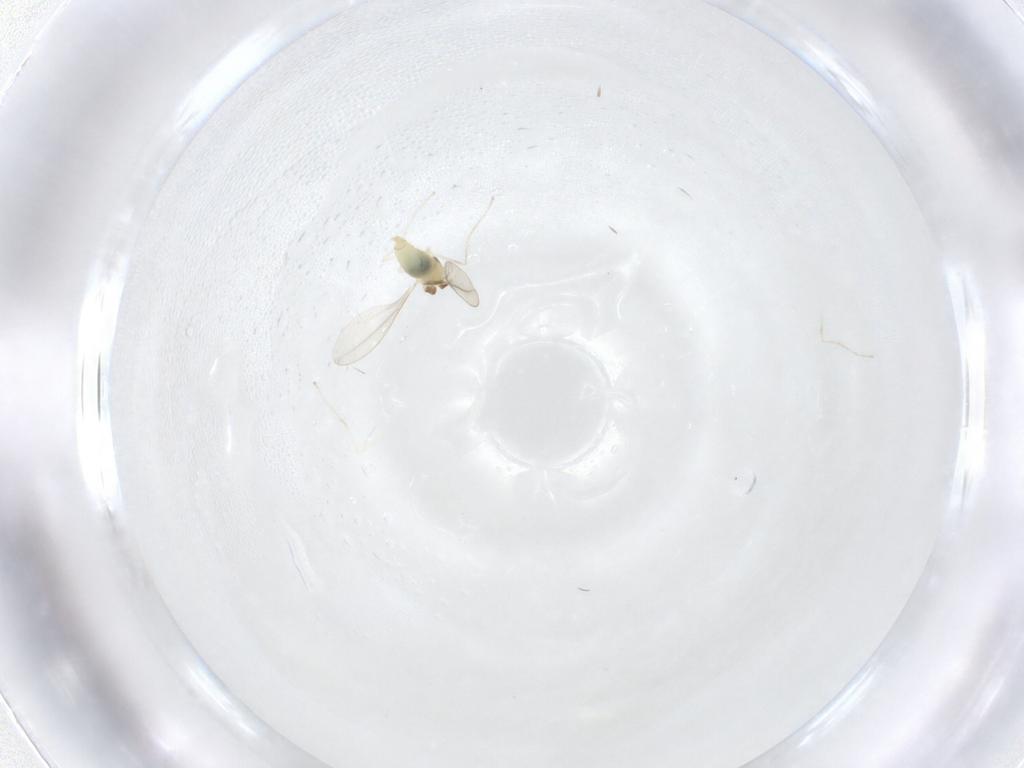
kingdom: Animalia
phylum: Arthropoda
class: Insecta
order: Diptera
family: Cecidomyiidae
